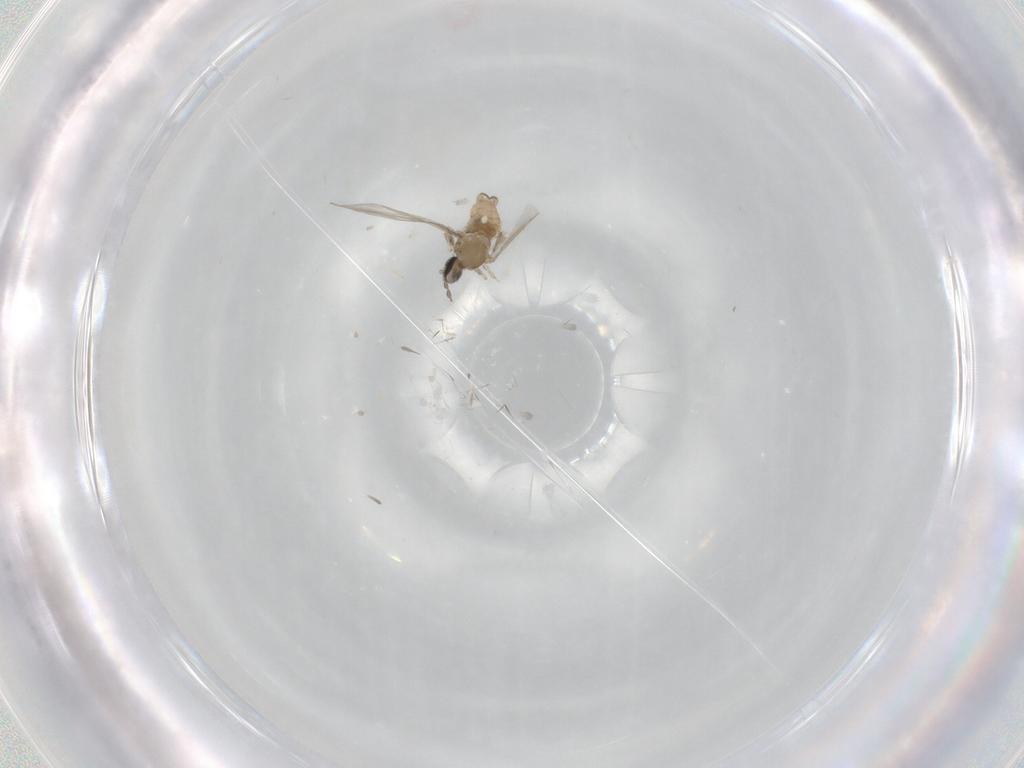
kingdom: Animalia
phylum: Arthropoda
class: Insecta
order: Diptera
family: Cecidomyiidae
